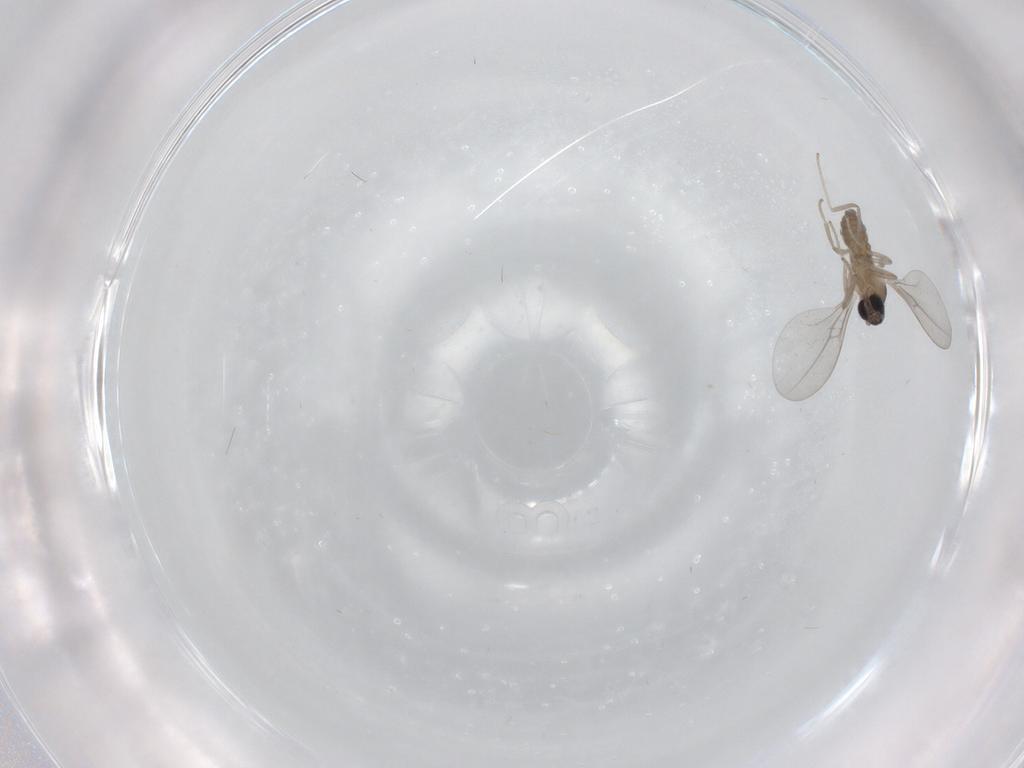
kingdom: Animalia
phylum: Arthropoda
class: Insecta
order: Diptera
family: Cecidomyiidae
